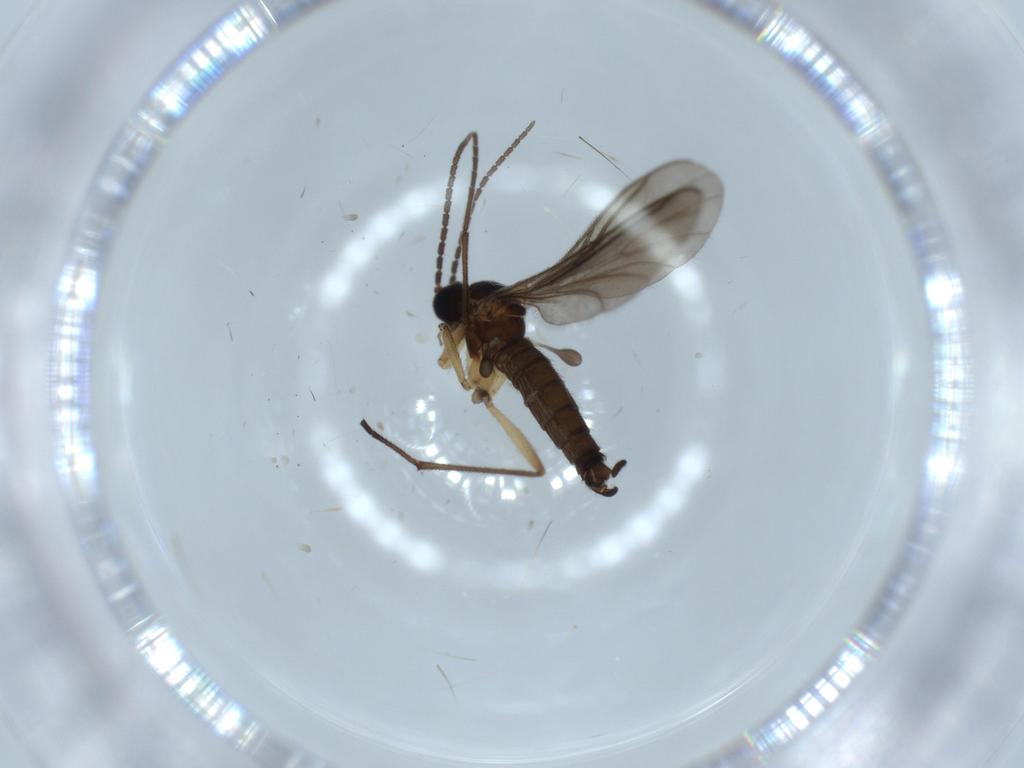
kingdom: Animalia
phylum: Arthropoda
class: Insecta
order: Diptera
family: Sciaridae
